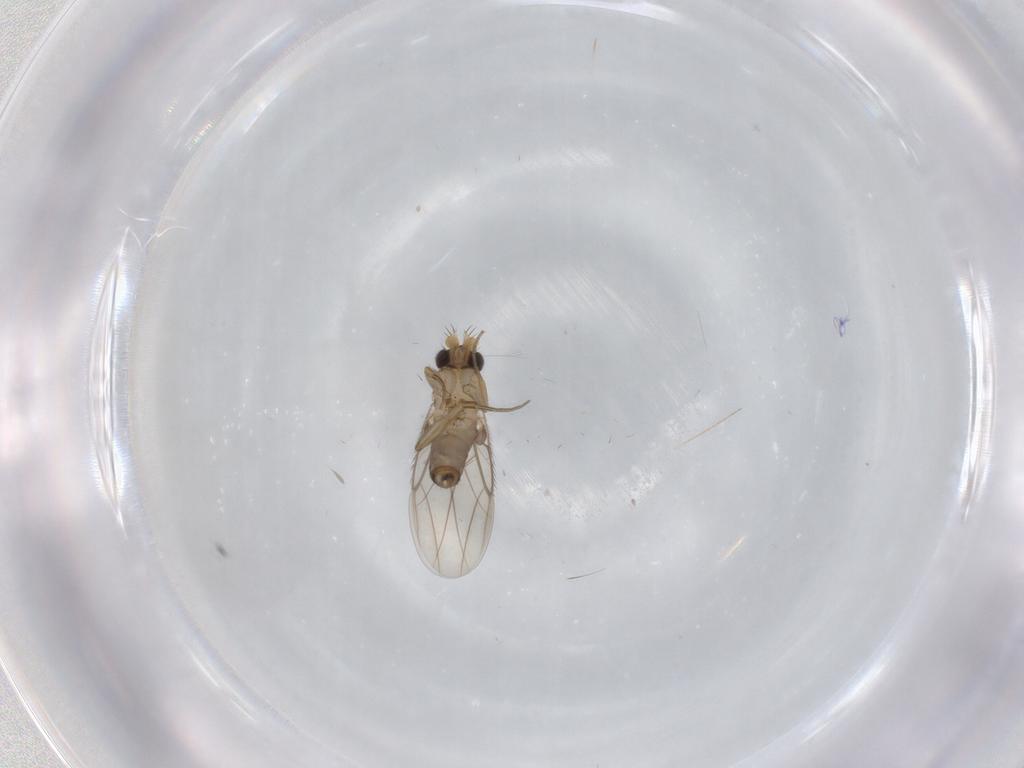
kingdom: Animalia
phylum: Arthropoda
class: Insecta
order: Diptera
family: Phoridae
